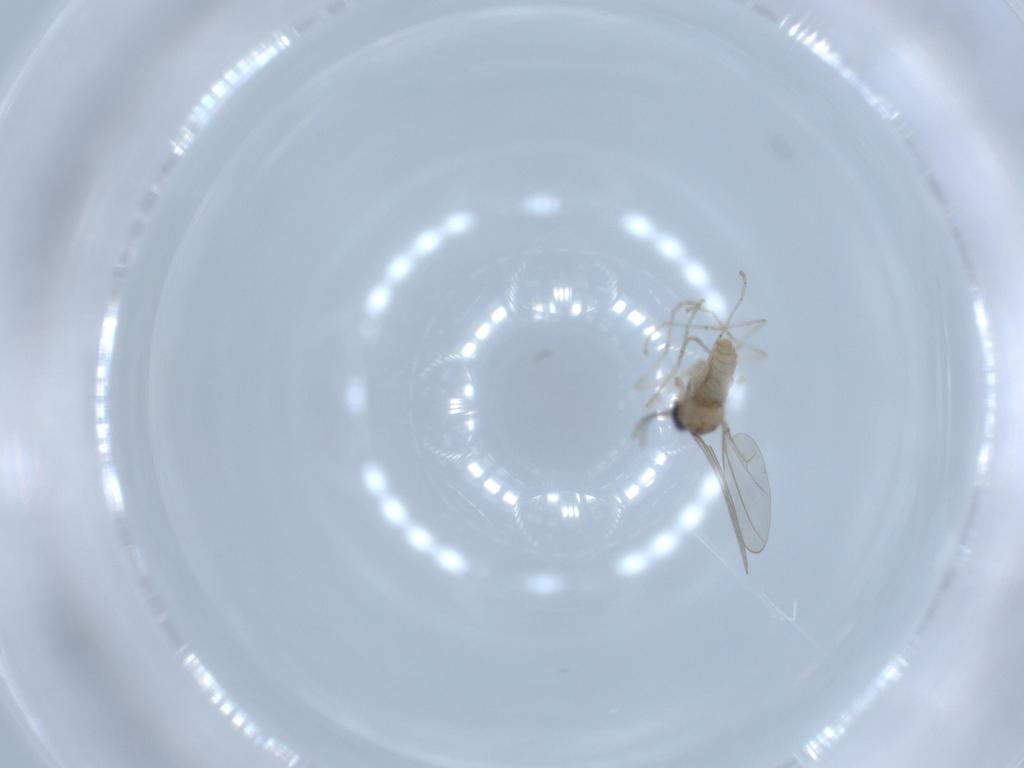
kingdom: Animalia
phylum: Arthropoda
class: Insecta
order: Diptera
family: Cecidomyiidae
